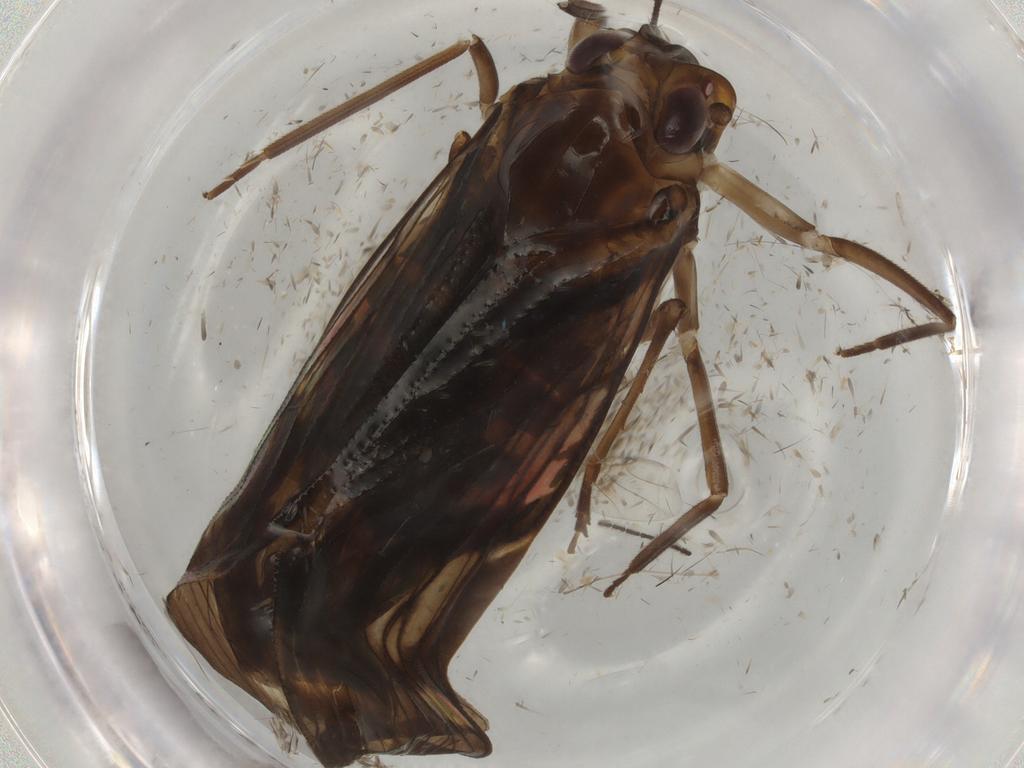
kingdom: Animalia
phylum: Arthropoda
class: Insecta
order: Hemiptera
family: Cixiidae
